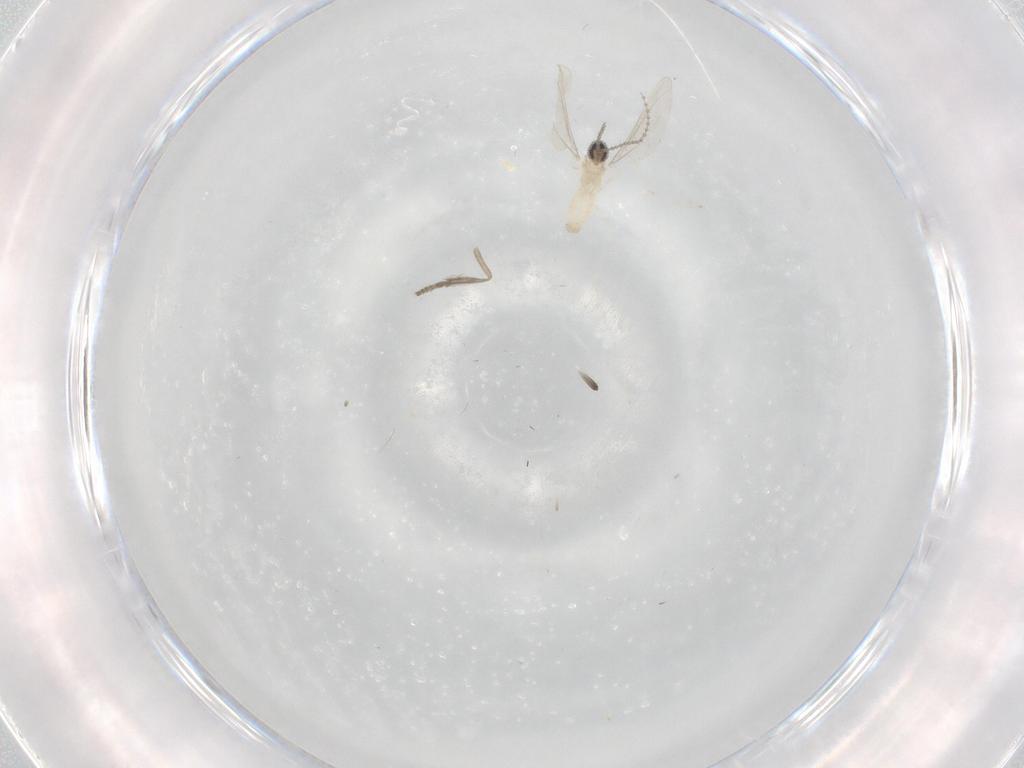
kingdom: Animalia
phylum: Arthropoda
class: Insecta
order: Diptera
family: Psychodidae
